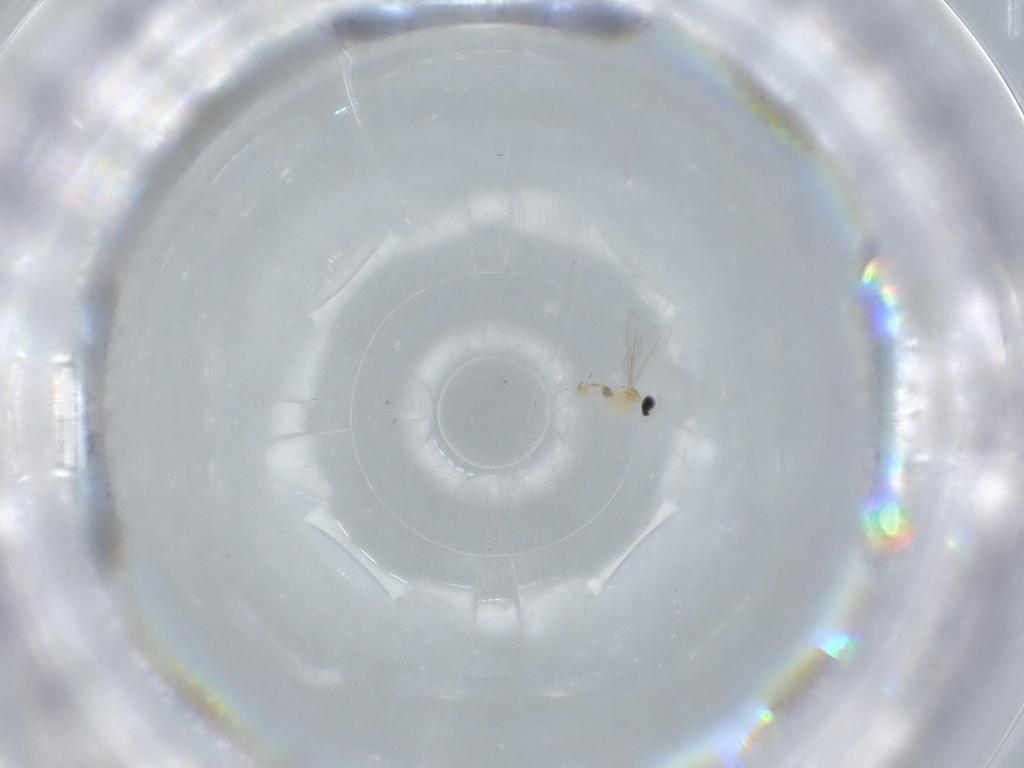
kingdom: Animalia
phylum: Arthropoda
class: Insecta
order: Diptera
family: Cecidomyiidae
